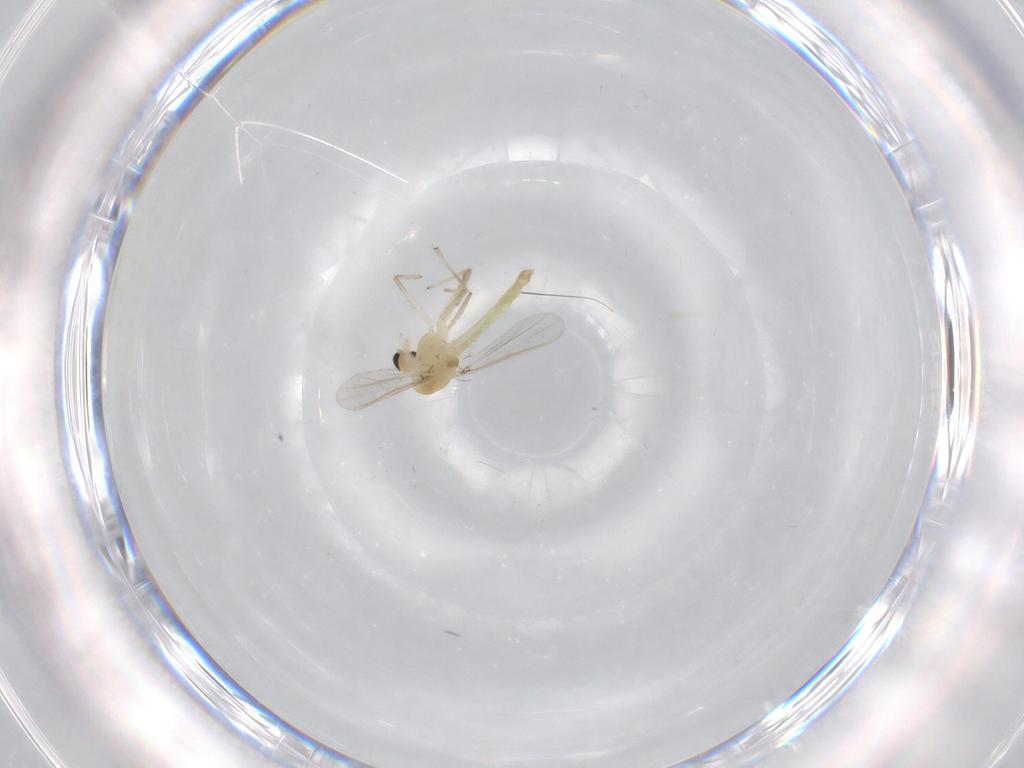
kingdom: Animalia
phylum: Arthropoda
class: Insecta
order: Diptera
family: Chironomidae
